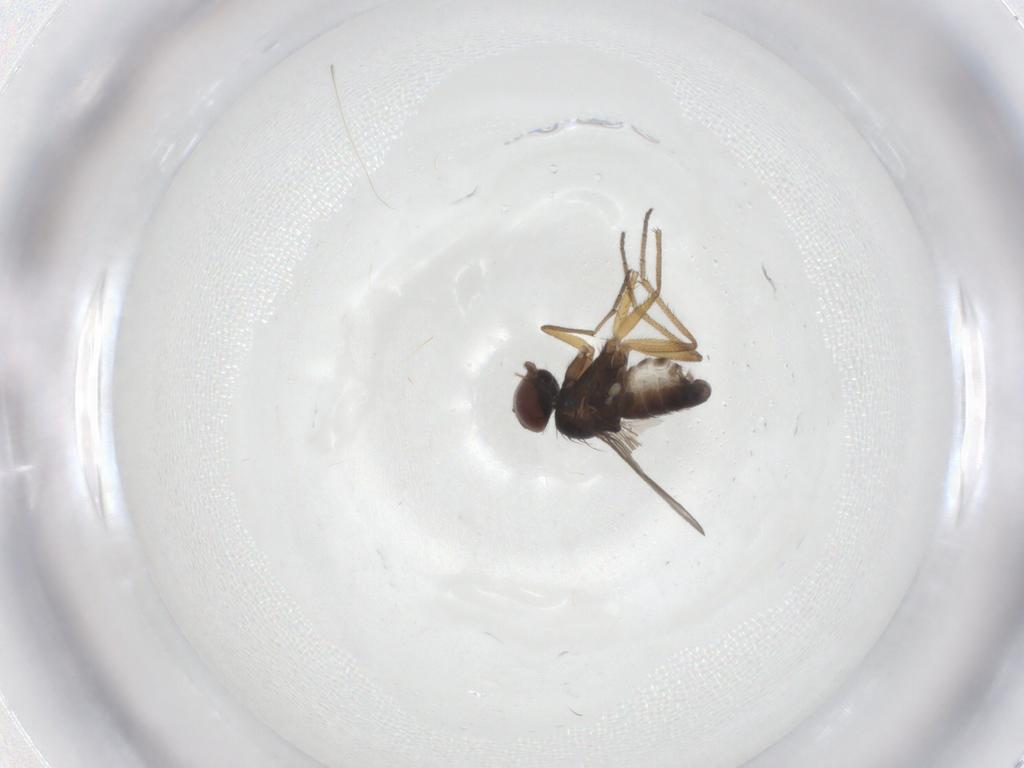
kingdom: Animalia
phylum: Arthropoda
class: Insecta
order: Diptera
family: Dolichopodidae
